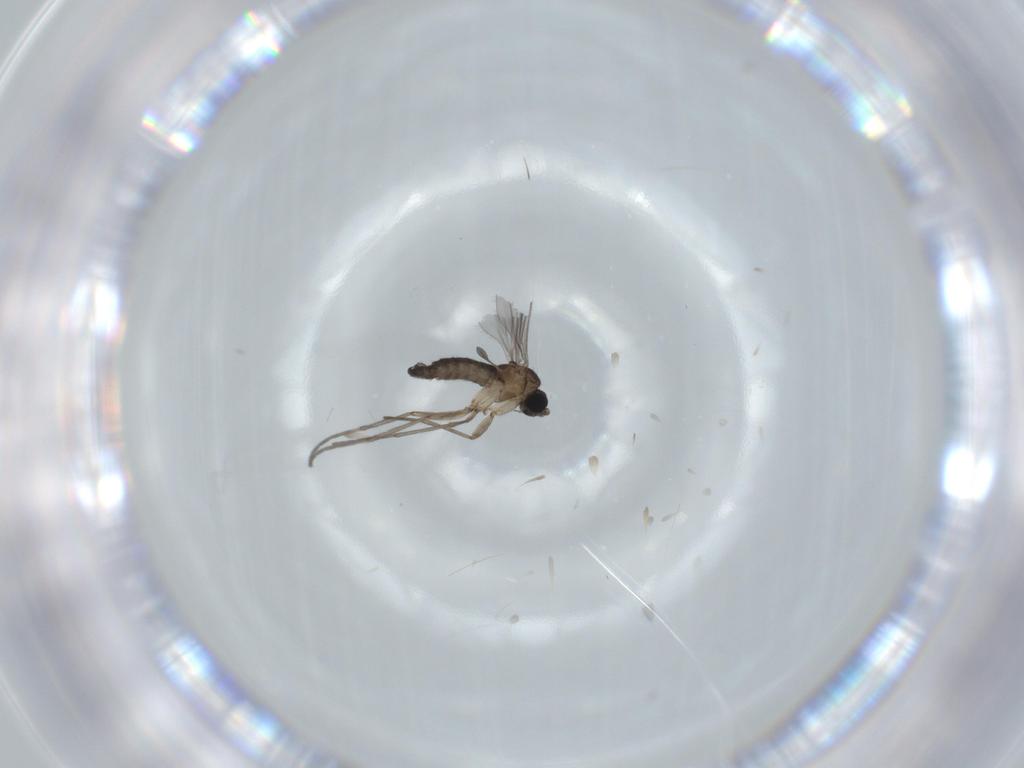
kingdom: Animalia
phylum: Arthropoda
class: Insecta
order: Diptera
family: Sciaridae
